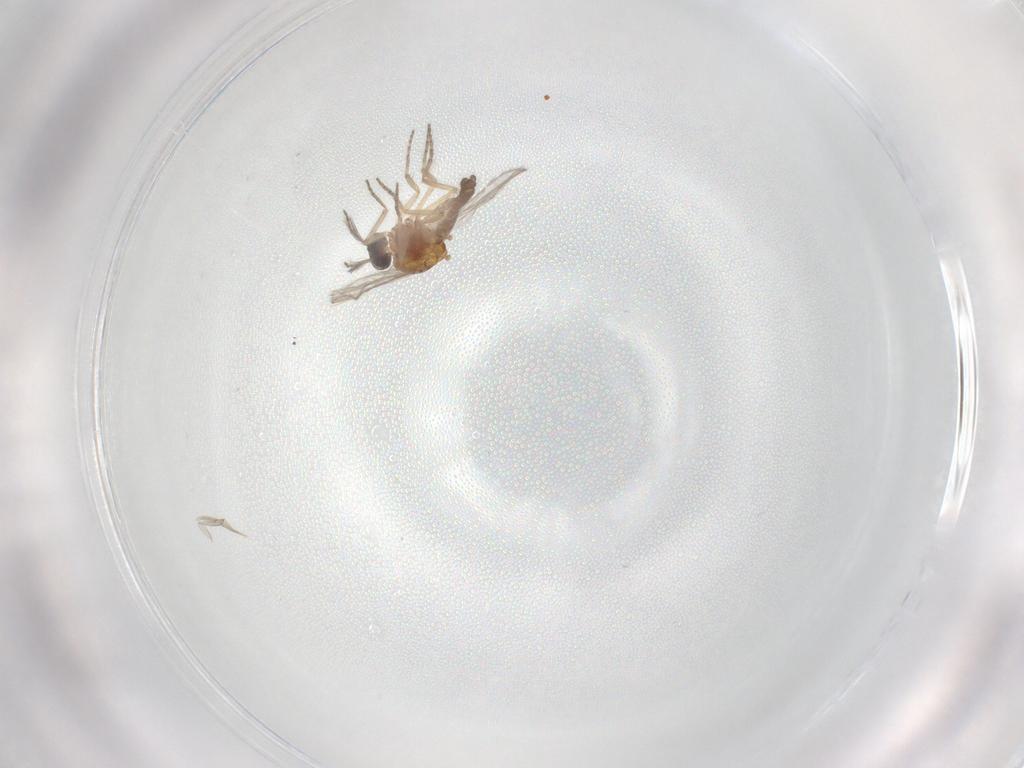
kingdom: Animalia
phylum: Arthropoda
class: Insecta
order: Diptera
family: Ceratopogonidae
